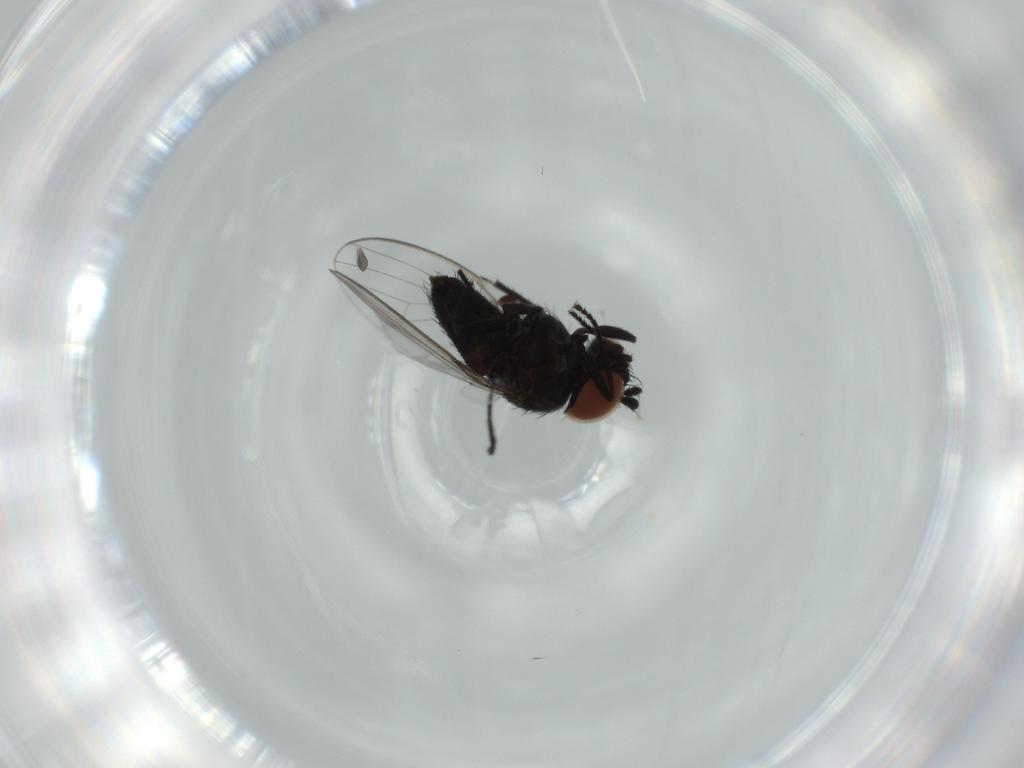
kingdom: Animalia
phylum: Arthropoda
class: Insecta
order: Diptera
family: Milichiidae
